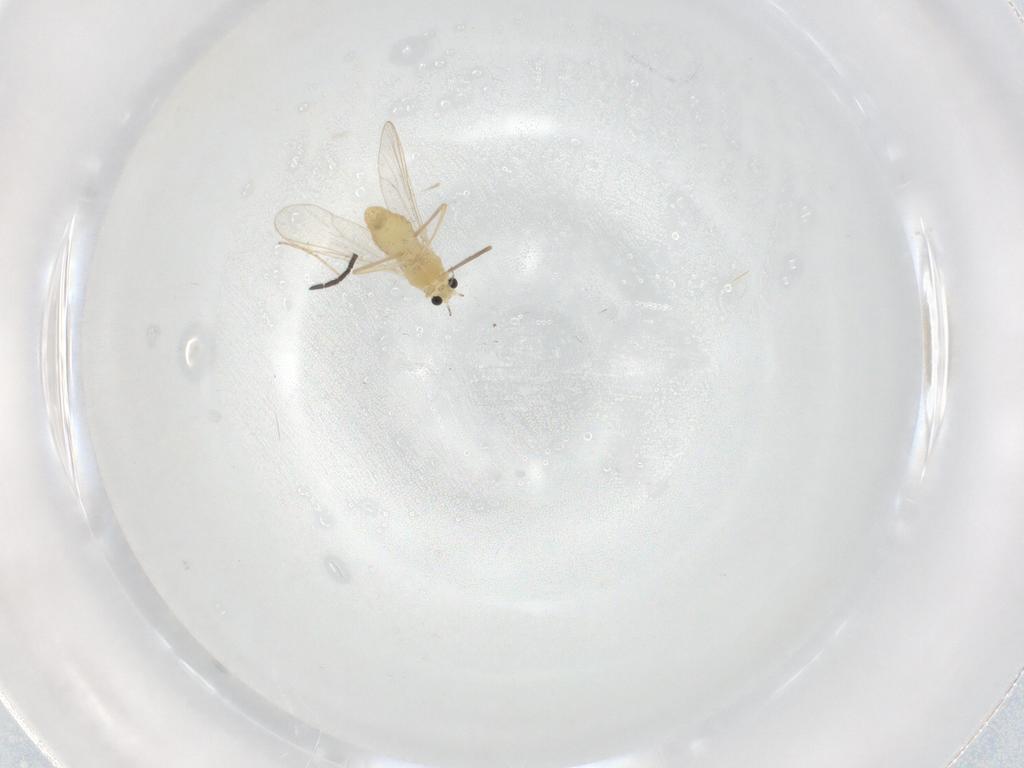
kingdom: Animalia
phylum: Arthropoda
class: Insecta
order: Diptera
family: Chironomidae
